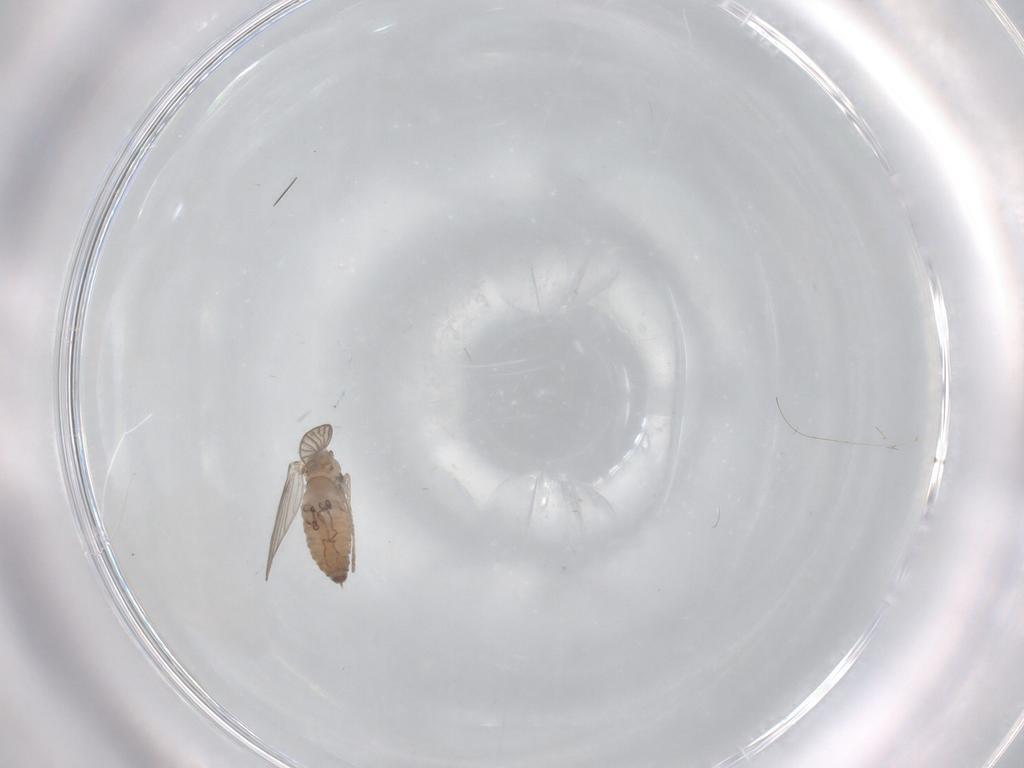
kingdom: Animalia
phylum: Arthropoda
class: Insecta
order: Diptera
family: Psychodidae
